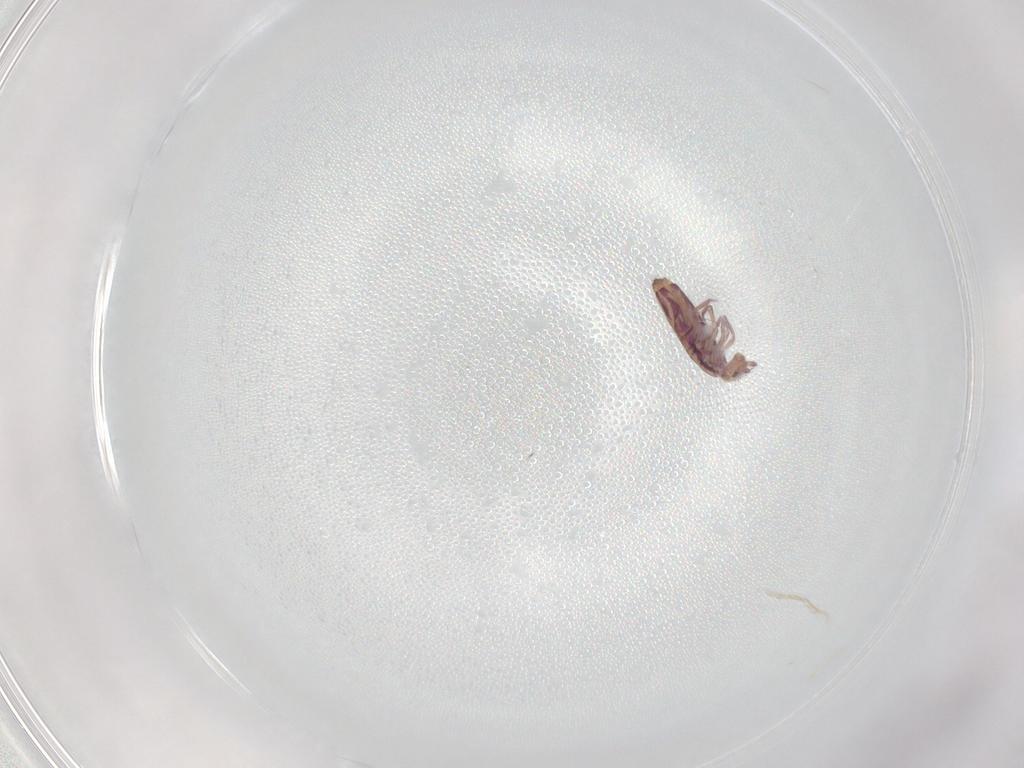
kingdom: Animalia
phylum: Arthropoda
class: Collembola
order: Entomobryomorpha
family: Entomobryidae
